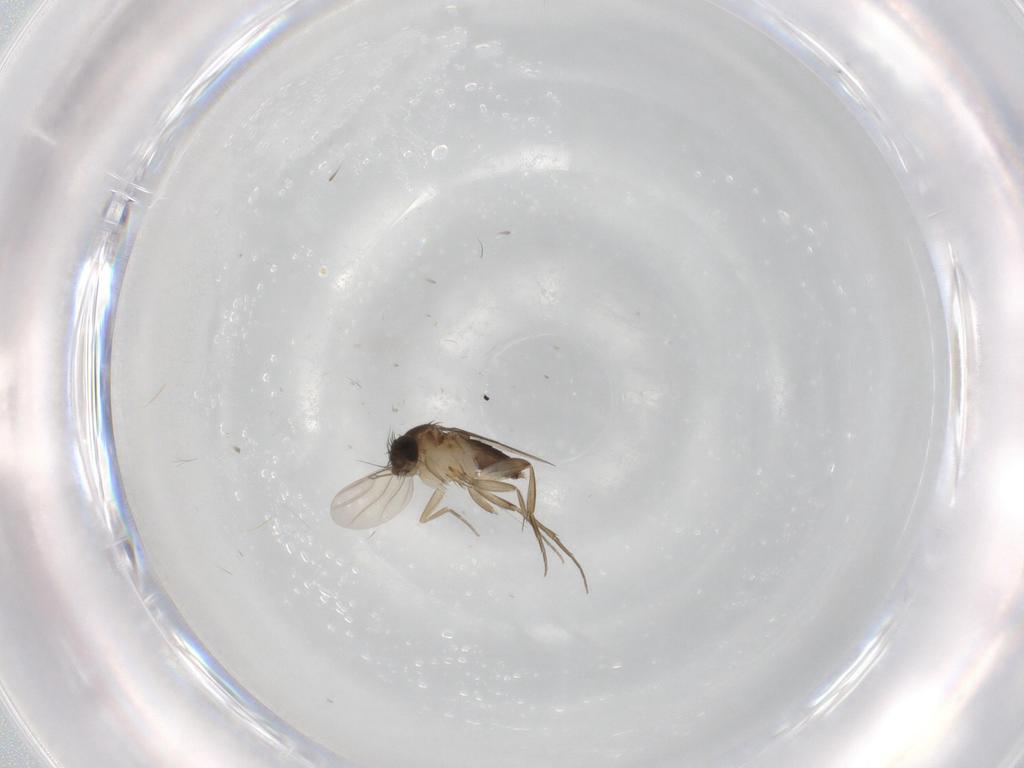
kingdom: Animalia
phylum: Arthropoda
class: Insecta
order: Diptera
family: Phoridae
